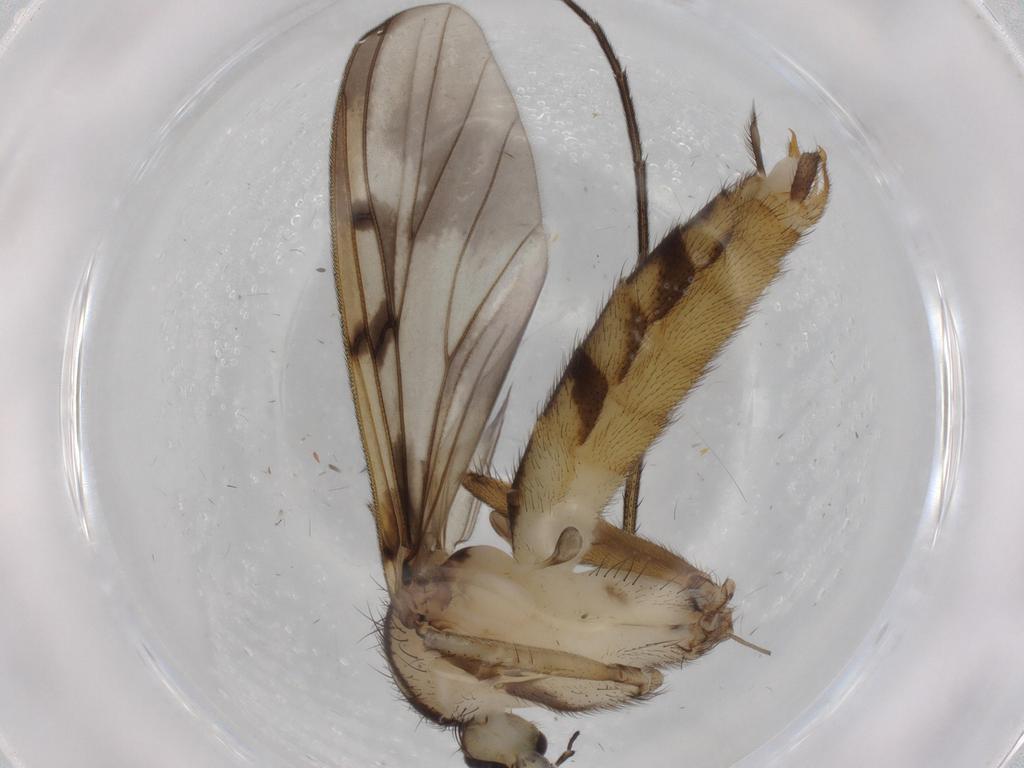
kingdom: Animalia
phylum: Arthropoda
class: Insecta
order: Diptera
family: Mycetophilidae
